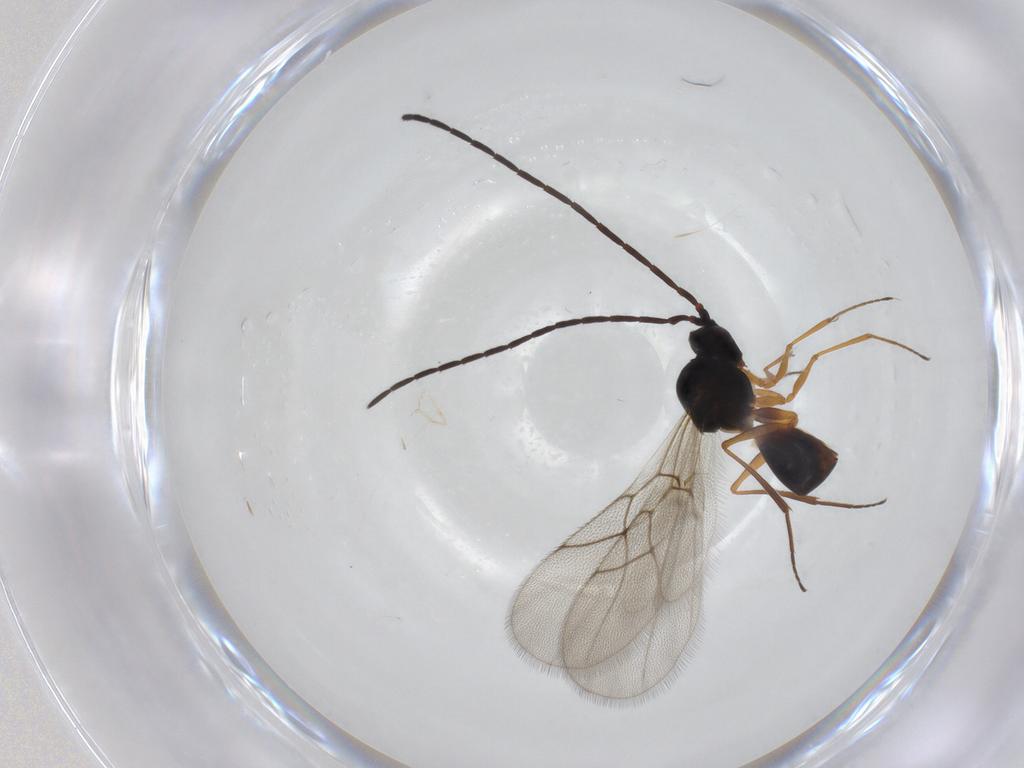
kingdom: Animalia
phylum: Arthropoda
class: Insecta
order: Hymenoptera
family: Figitidae
